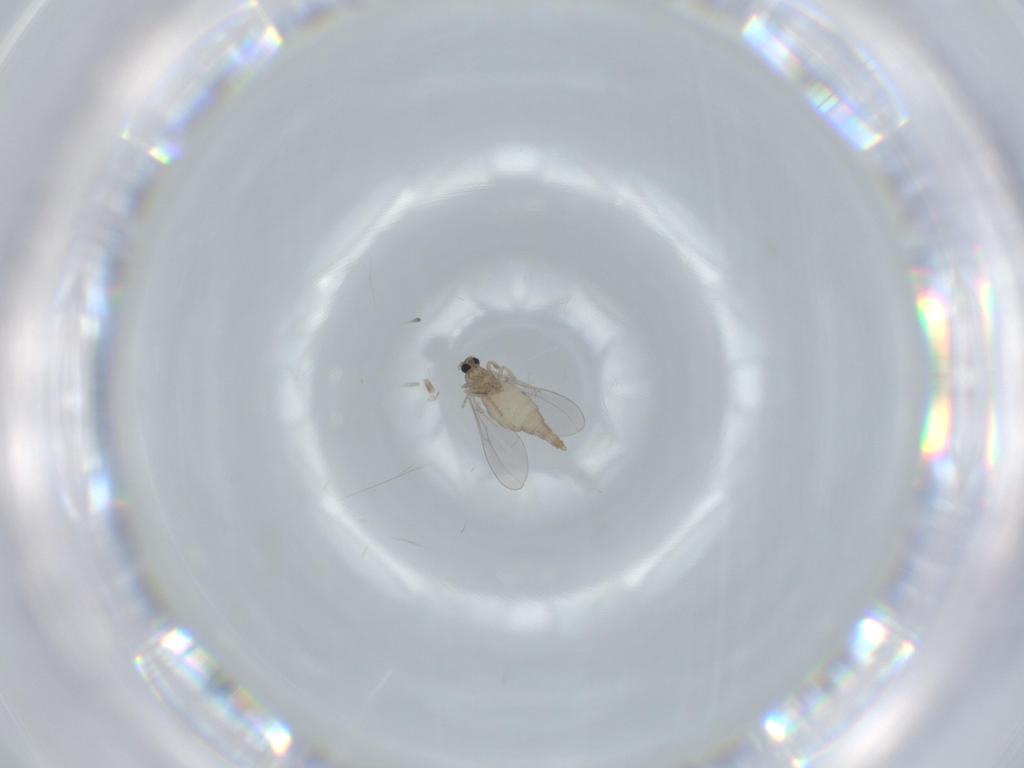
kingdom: Animalia
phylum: Arthropoda
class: Insecta
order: Diptera
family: Cecidomyiidae
